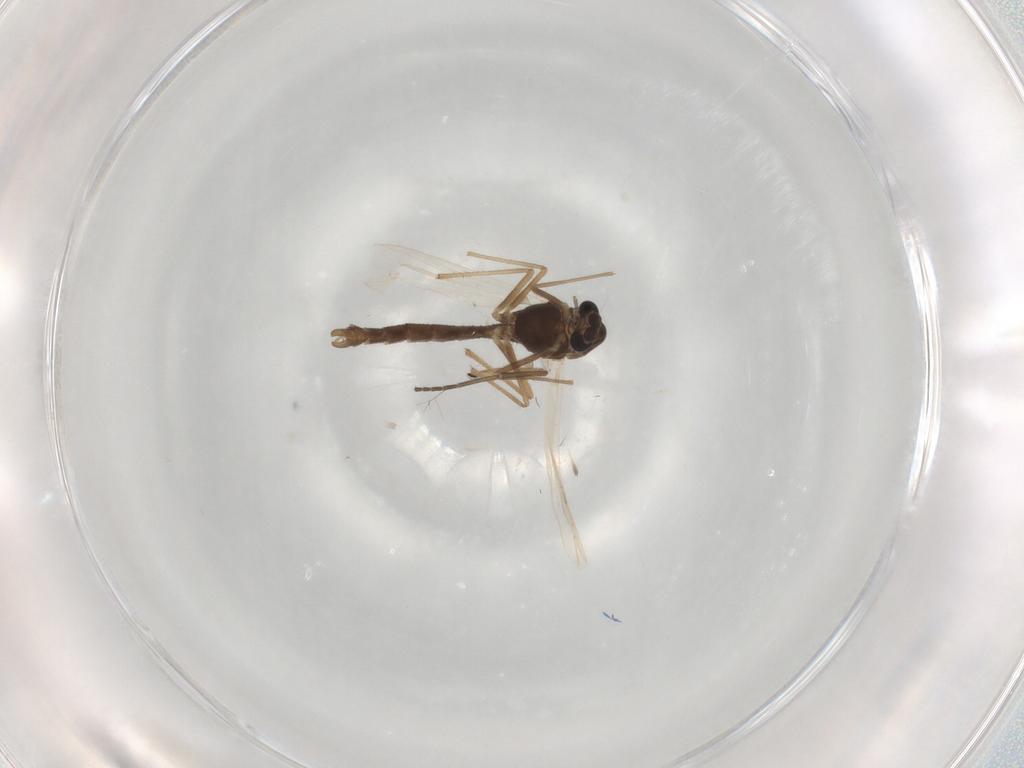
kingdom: Animalia
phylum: Arthropoda
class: Insecta
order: Diptera
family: Chironomidae
